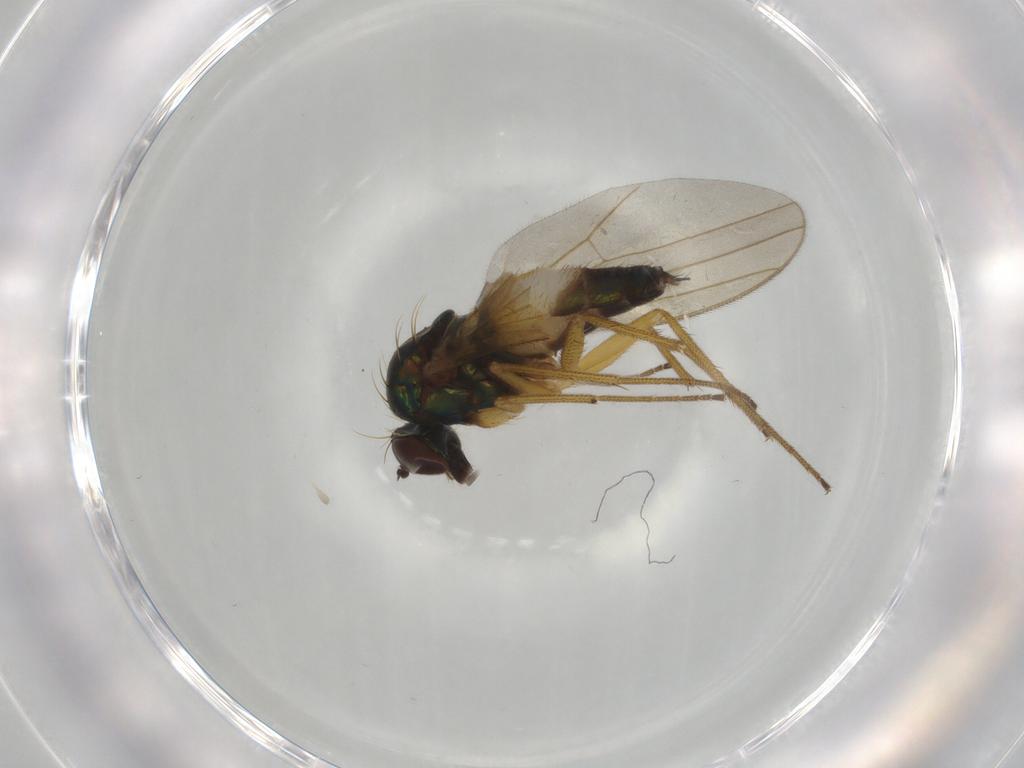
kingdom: Animalia
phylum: Arthropoda
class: Insecta
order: Diptera
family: Dolichopodidae
